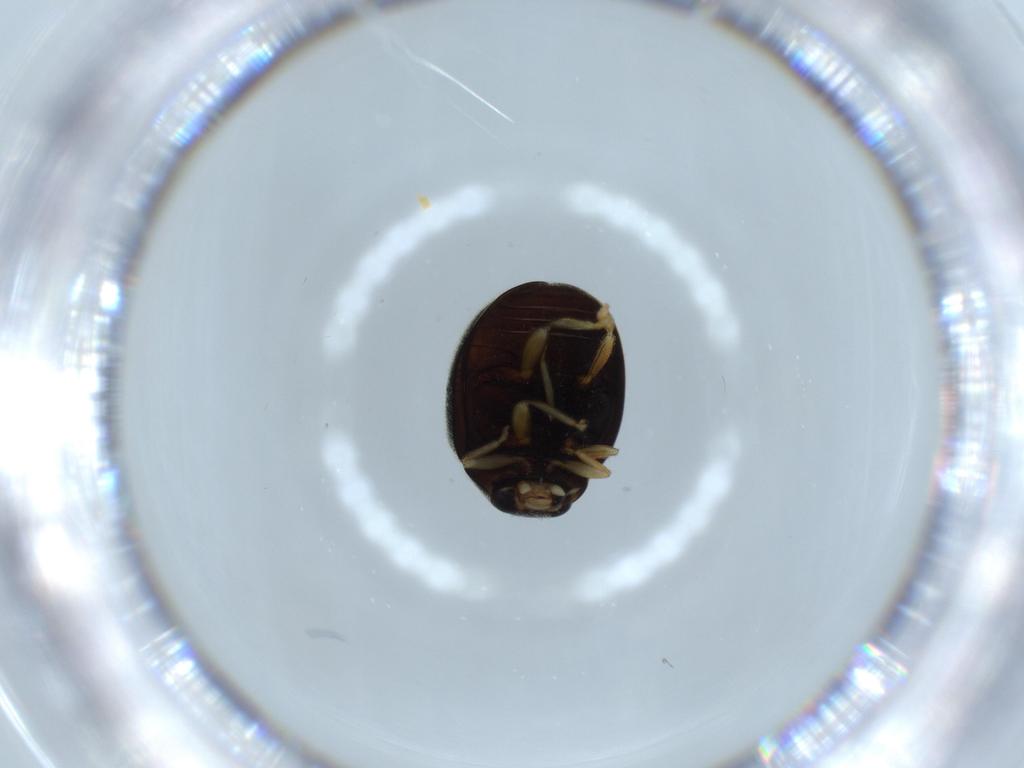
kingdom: Animalia
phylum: Arthropoda
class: Insecta
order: Coleoptera
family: Coccinellidae
